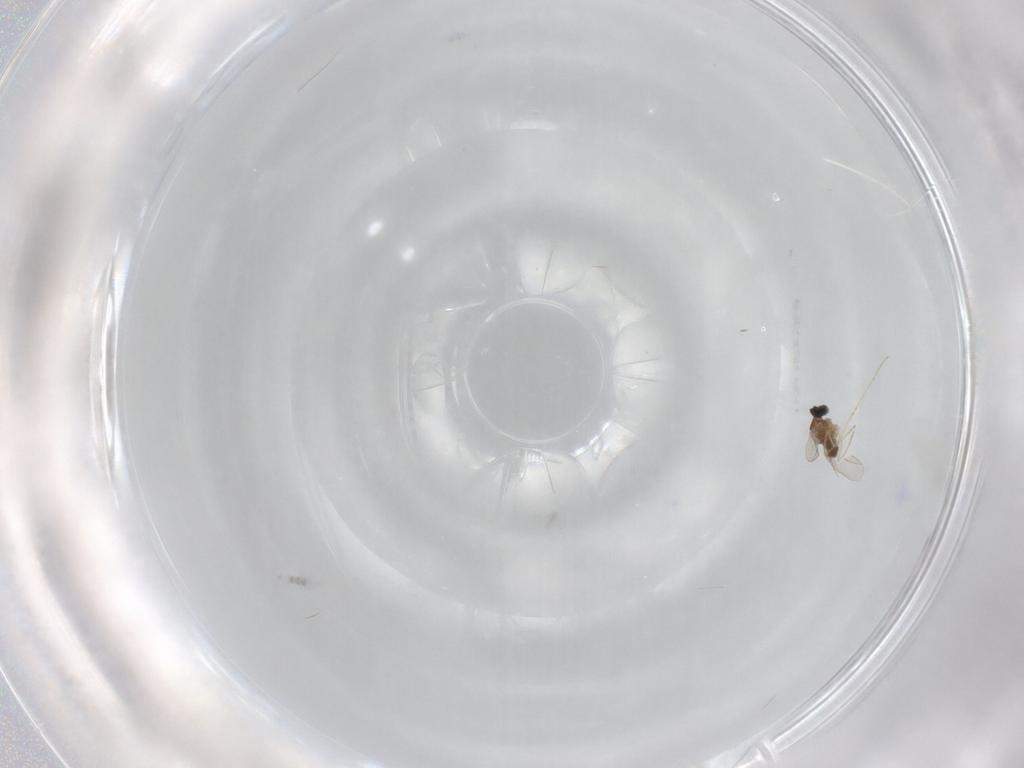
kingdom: Animalia
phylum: Arthropoda
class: Insecta
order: Diptera
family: Cecidomyiidae
